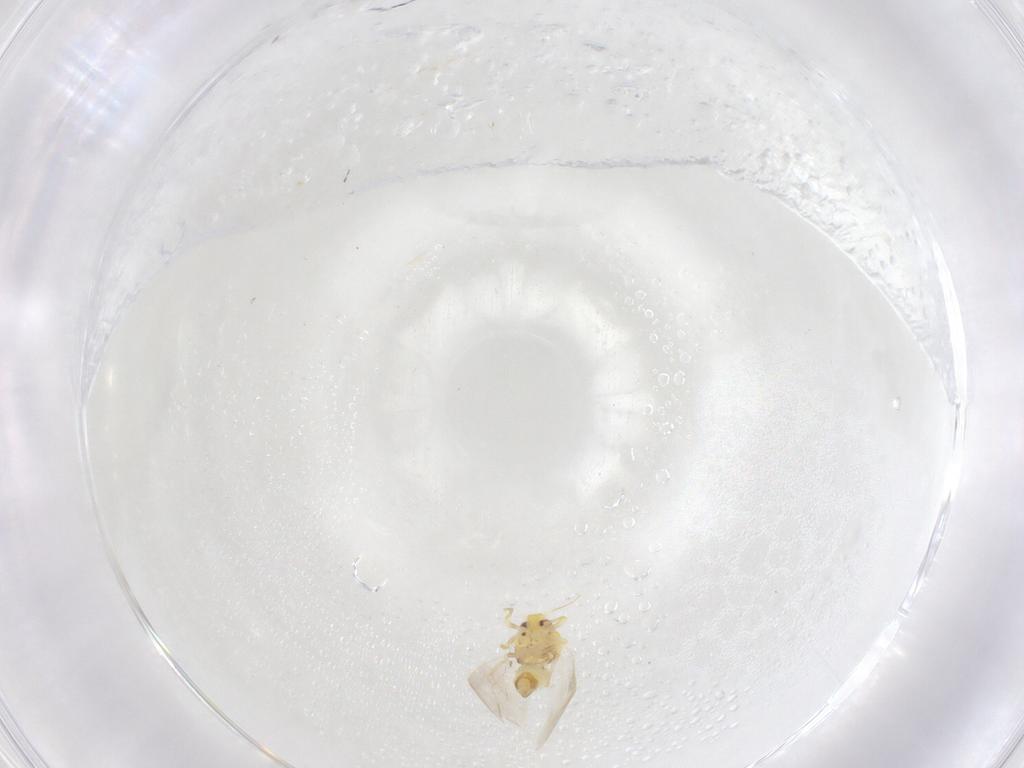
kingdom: Animalia
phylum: Arthropoda
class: Insecta
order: Hemiptera
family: Aleyrodidae
